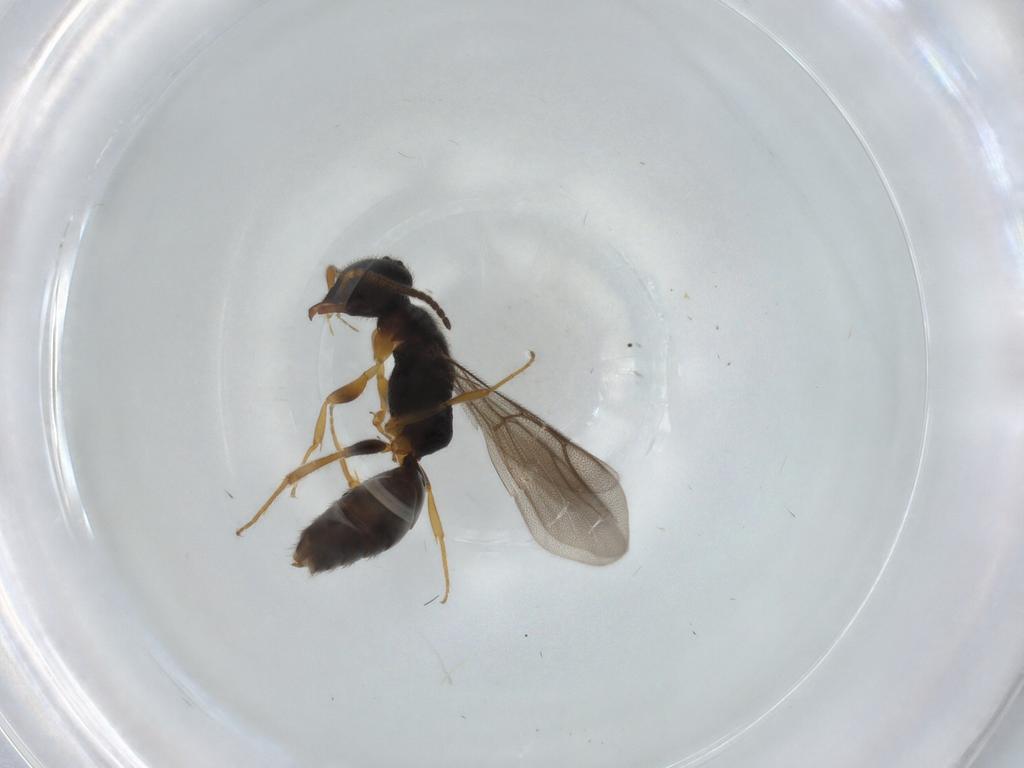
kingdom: Animalia
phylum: Arthropoda
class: Insecta
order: Hymenoptera
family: Bethylidae
